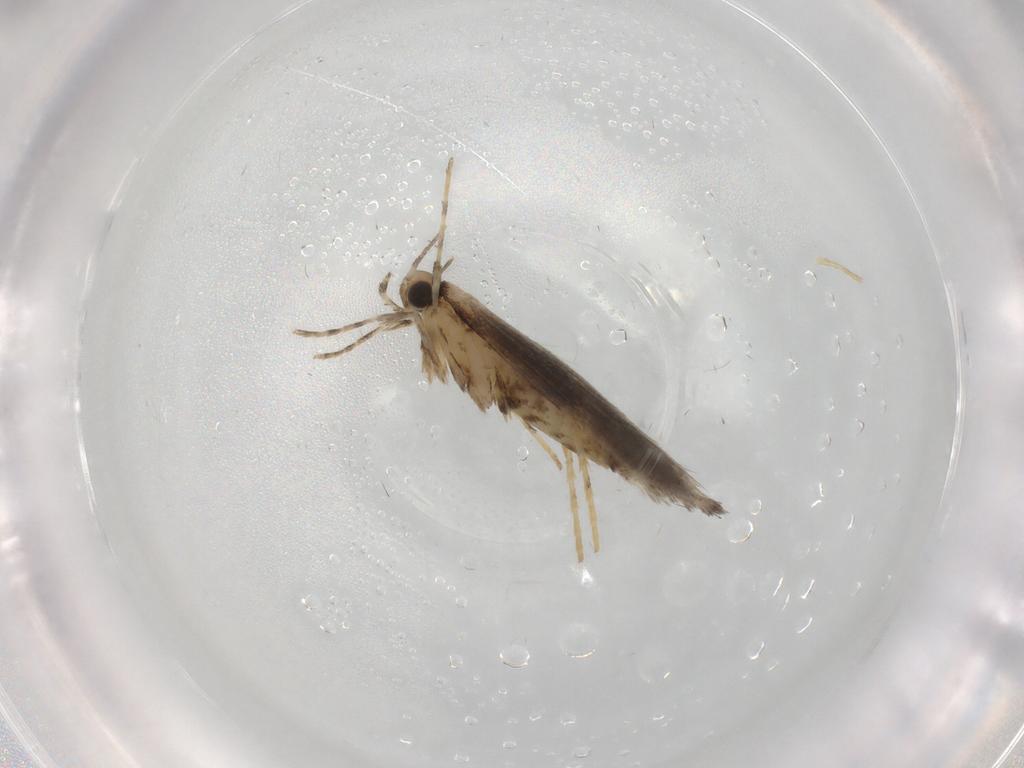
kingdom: Animalia
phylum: Arthropoda
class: Insecta
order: Lepidoptera
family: Gracillariidae
